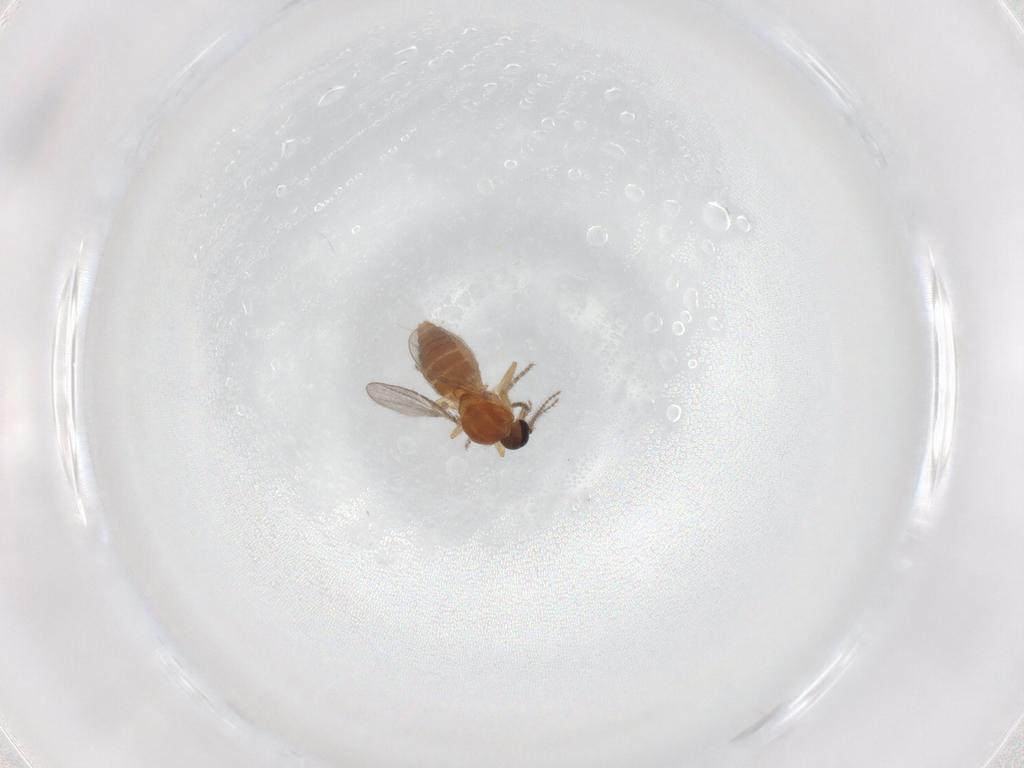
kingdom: Animalia
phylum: Arthropoda
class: Insecta
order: Diptera
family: Ceratopogonidae
